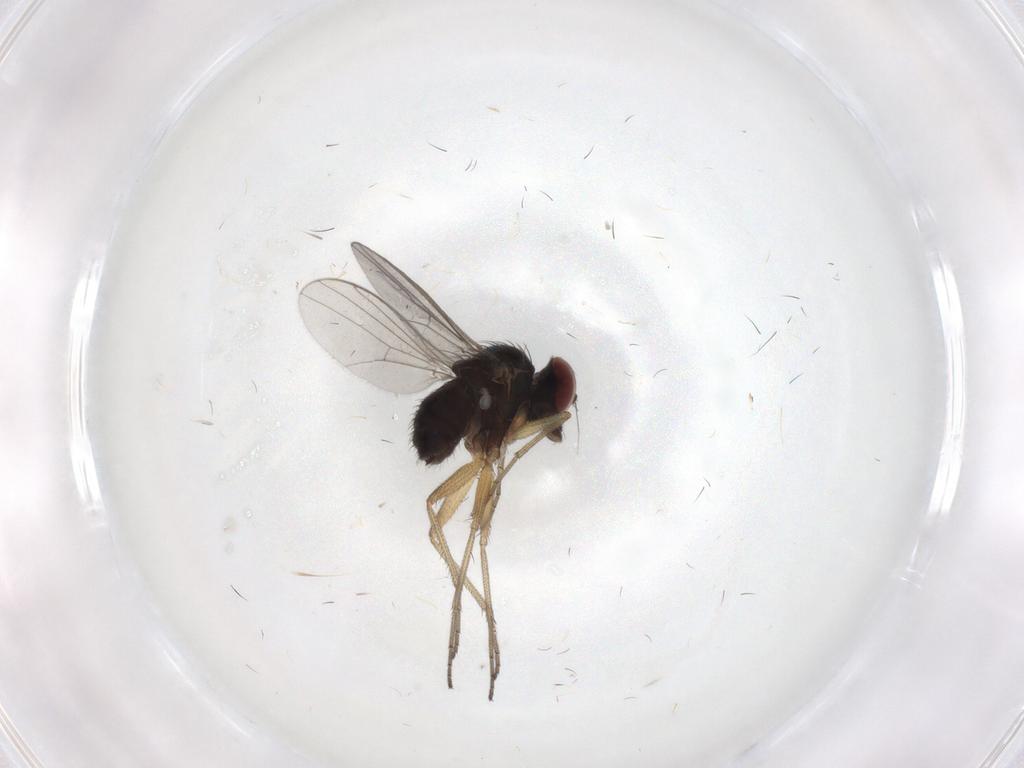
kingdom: Animalia
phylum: Arthropoda
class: Insecta
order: Diptera
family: Dolichopodidae
